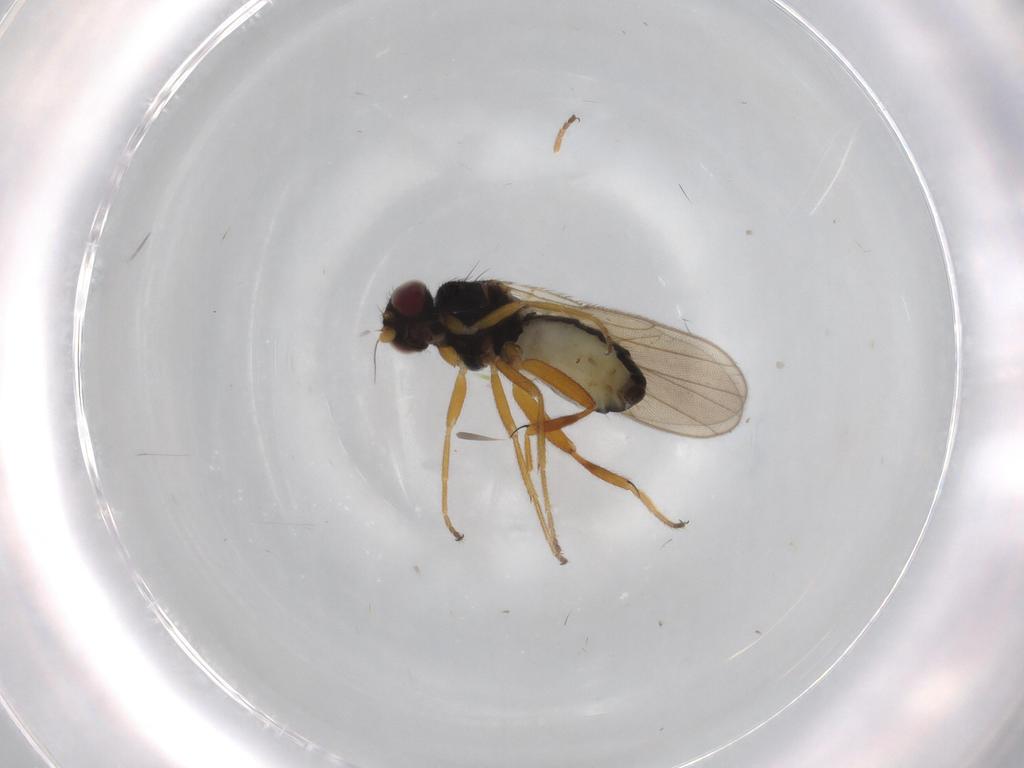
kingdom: Animalia
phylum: Arthropoda
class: Insecta
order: Diptera
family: Chloropidae
